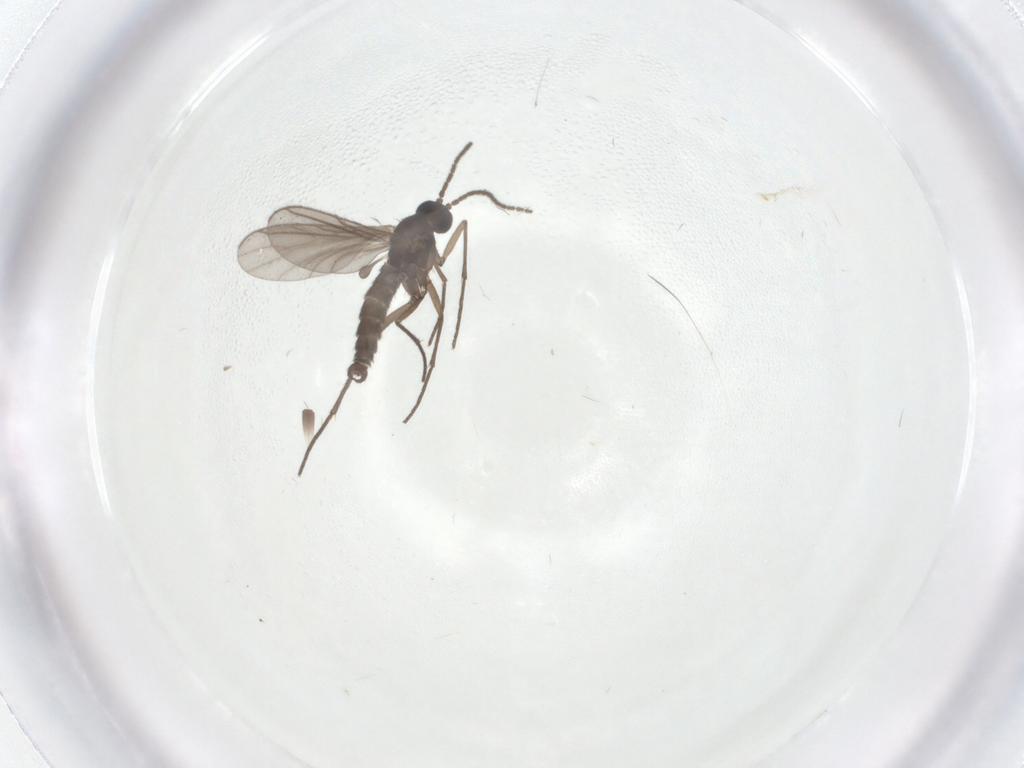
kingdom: Animalia
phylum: Arthropoda
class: Insecta
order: Diptera
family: Sciaridae
